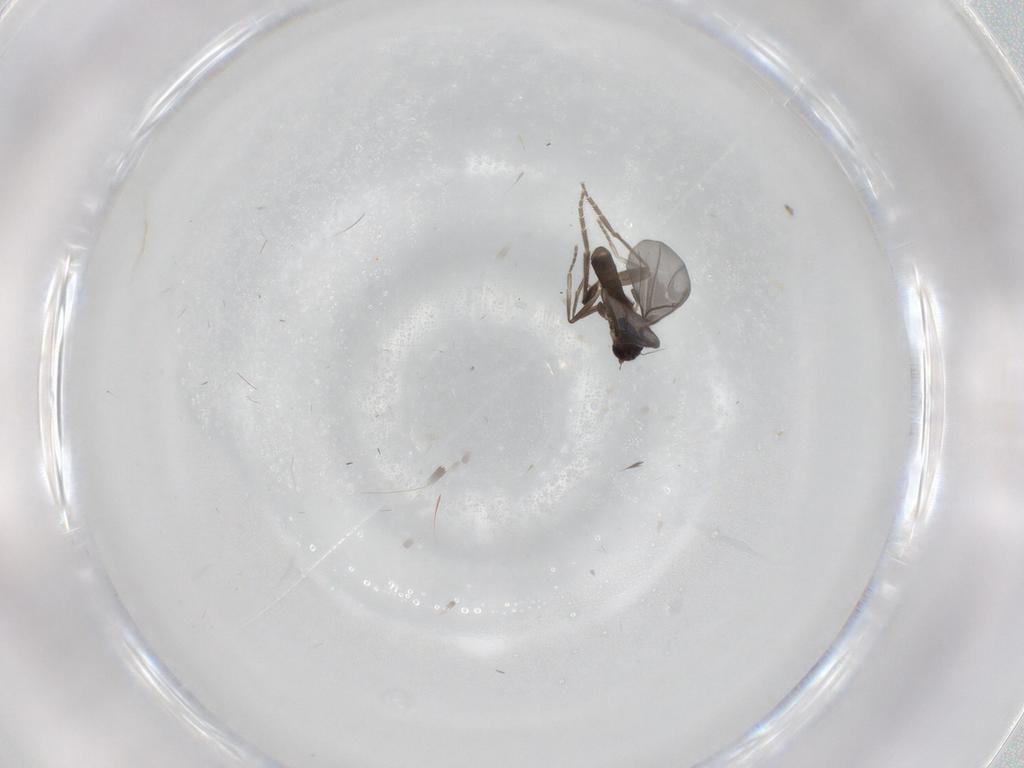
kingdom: Animalia
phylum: Arthropoda
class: Insecta
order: Diptera
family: Phoridae
